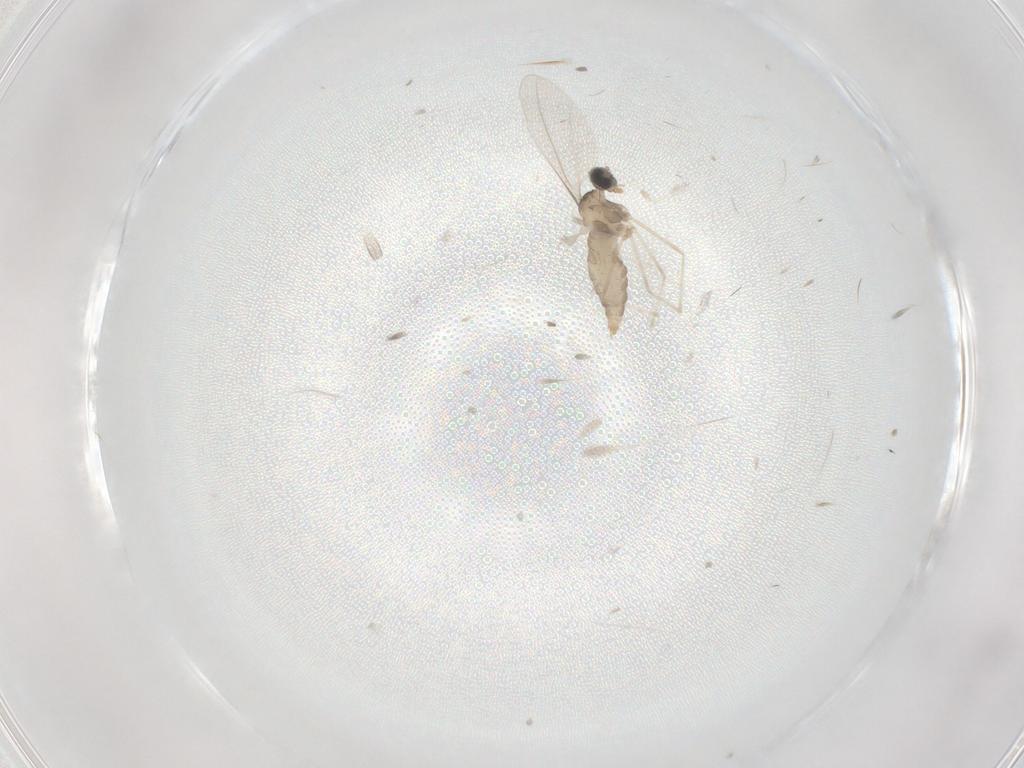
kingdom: Animalia
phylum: Arthropoda
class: Insecta
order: Diptera
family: Cecidomyiidae
